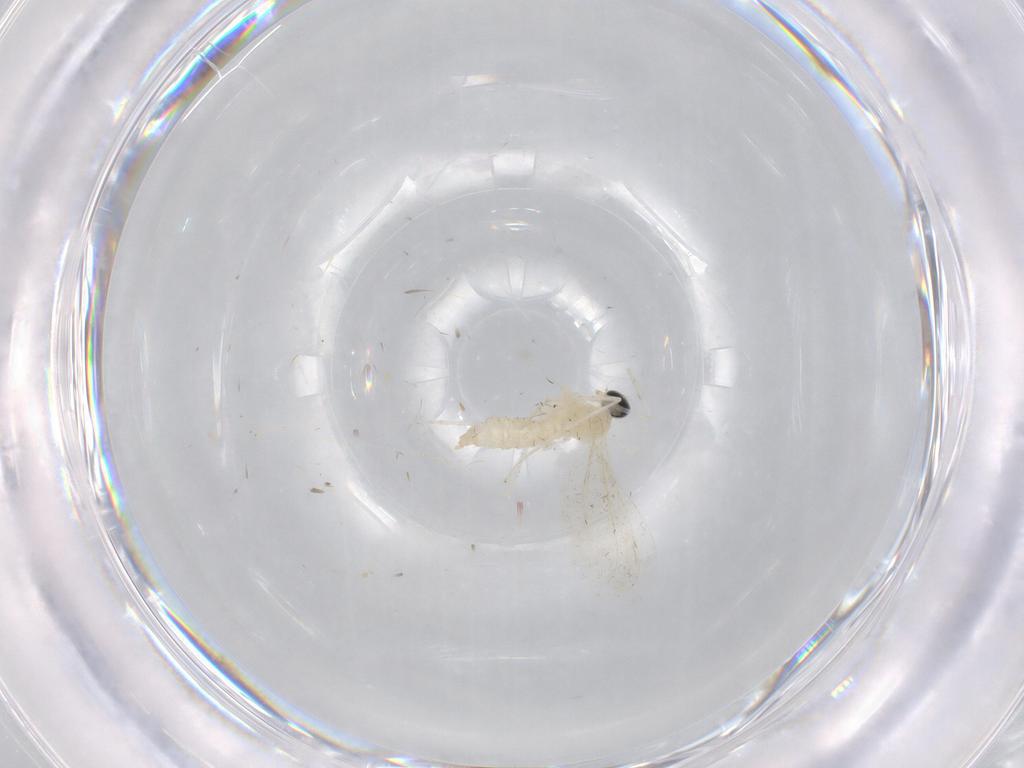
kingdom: Animalia
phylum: Arthropoda
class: Insecta
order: Diptera
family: Cecidomyiidae
